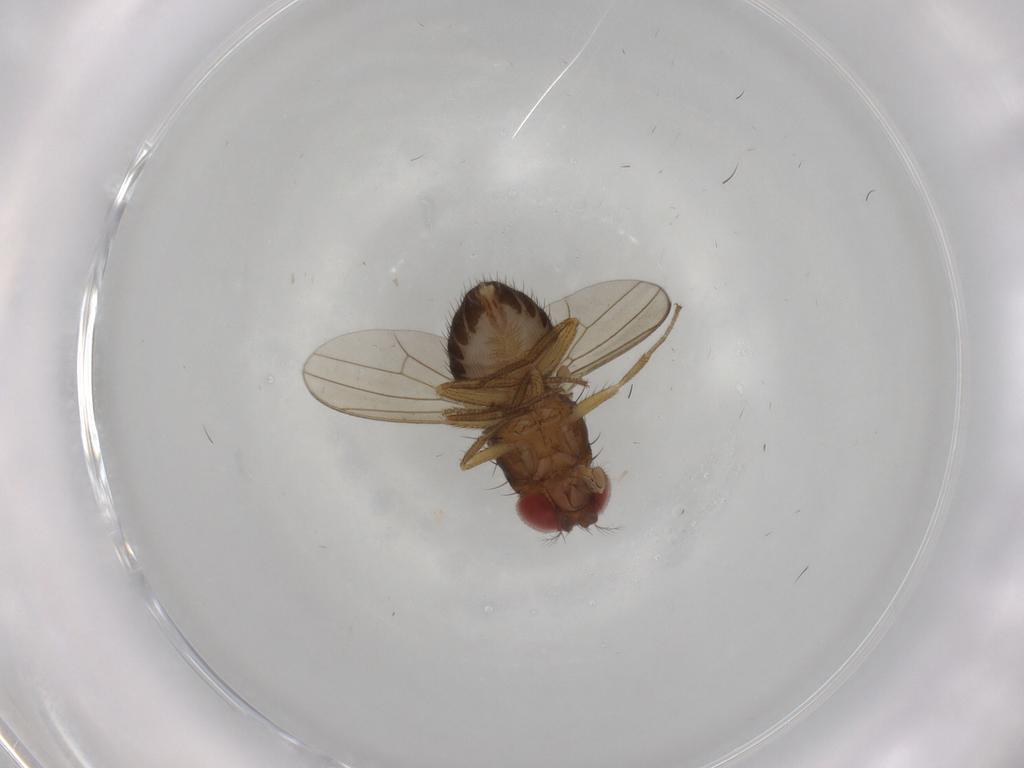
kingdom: Animalia
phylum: Arthropoda
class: Insecta
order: Diptera
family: Drosophilidae
